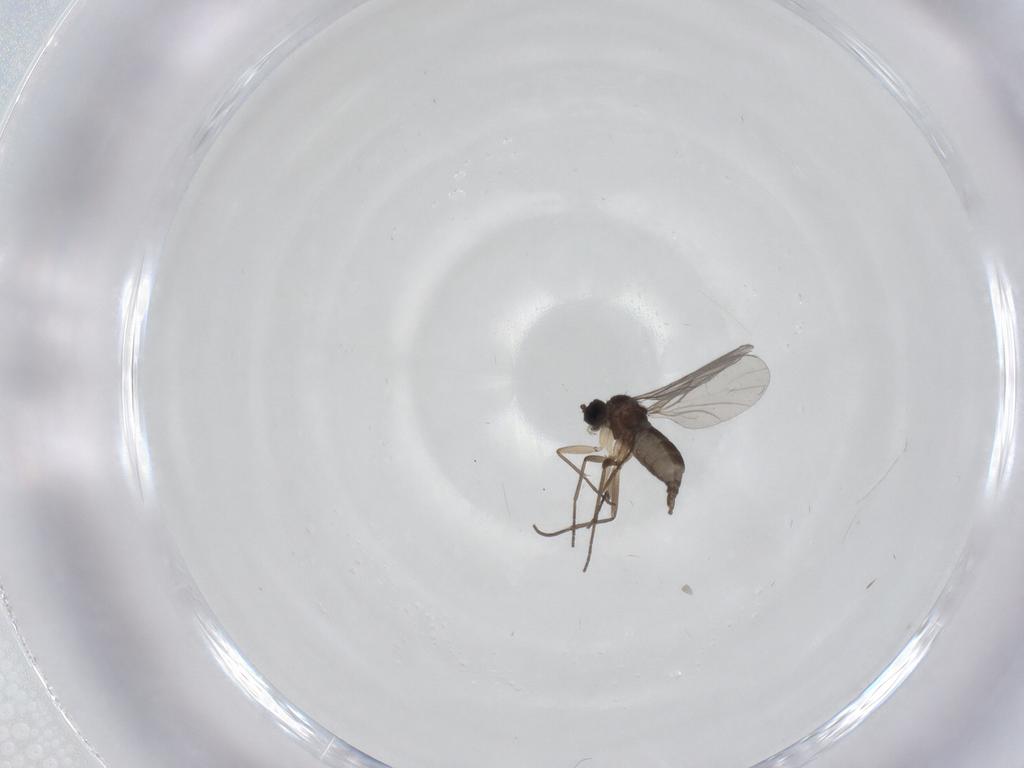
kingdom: Animalia
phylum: Arthropoda
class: Insecta
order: Diptera
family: Sciaridae
